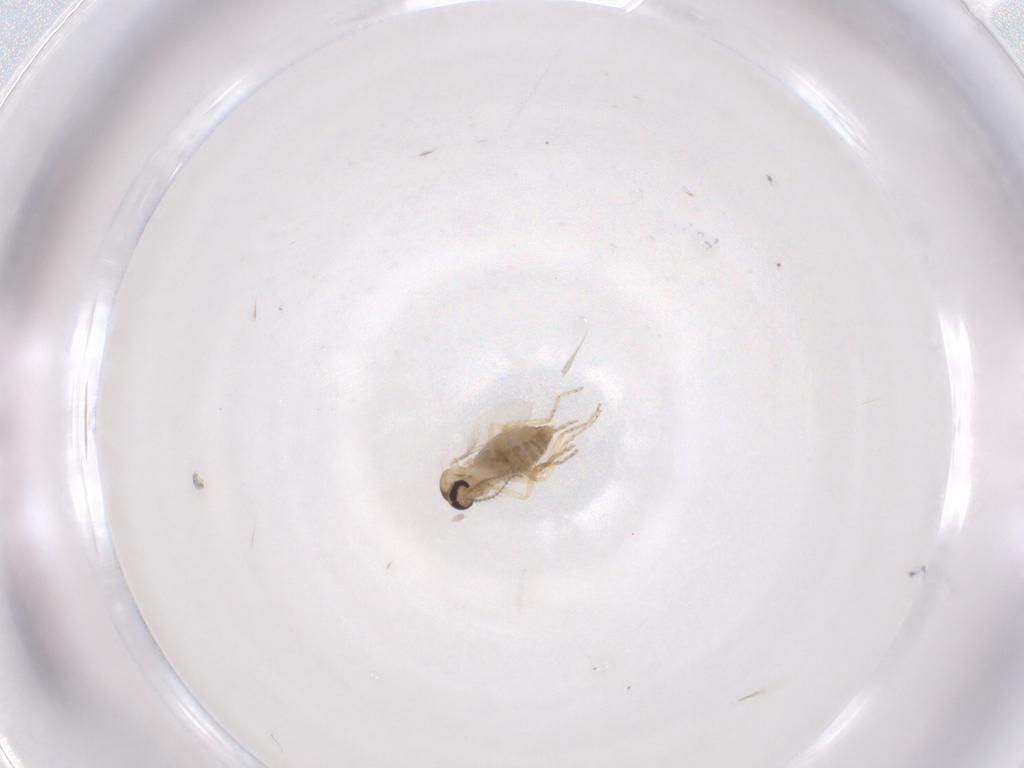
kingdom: Animalia
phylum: Arthropoda
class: Insecta
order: Diptera
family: Ceratopogonidae
